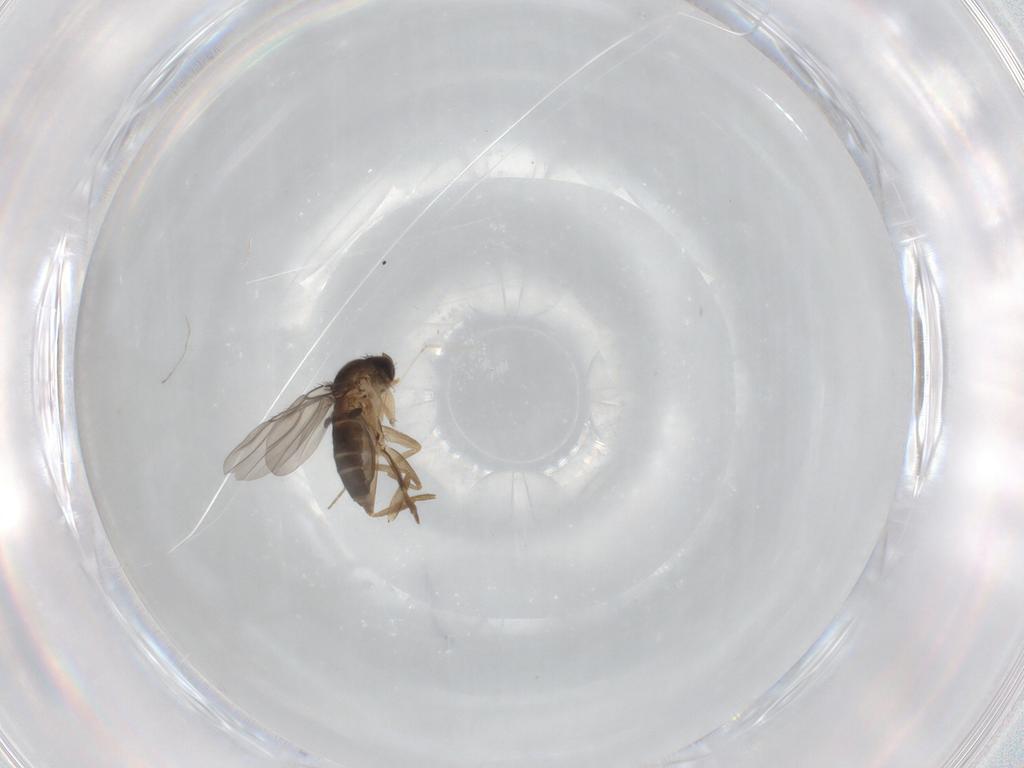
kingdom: Animalia
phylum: Arthropoda
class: Insecta
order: Diptera
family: Phoridae
